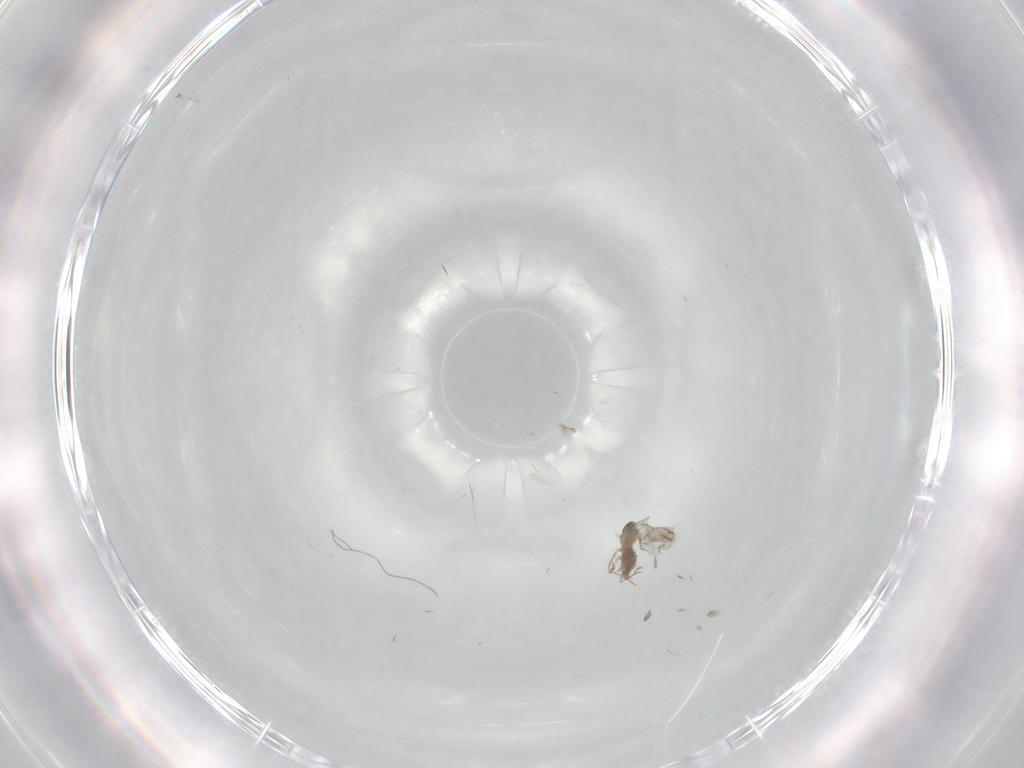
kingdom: Animalia
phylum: Arthropoda
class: Insecta
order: Diptera
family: Cecidomyiidae
